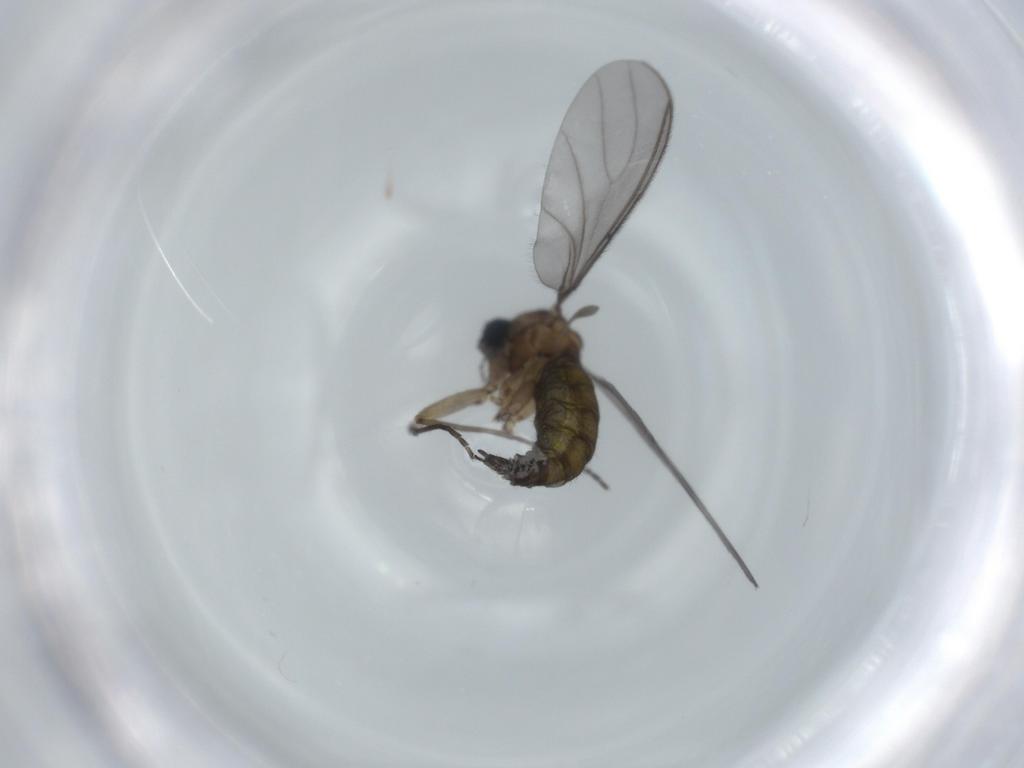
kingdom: Animalia
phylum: Arthropoda
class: Insecta
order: Diptera
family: Sciaridae
